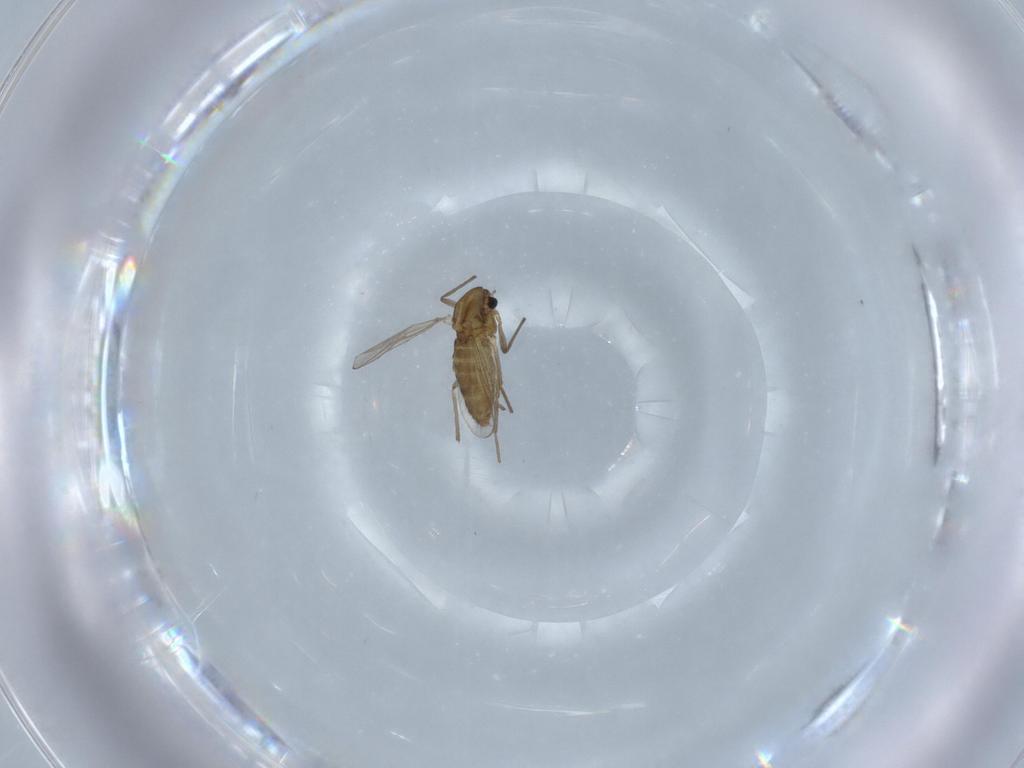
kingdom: Animalia
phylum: Arthropoda
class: Insecta
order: Diptera
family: Chironomidae
